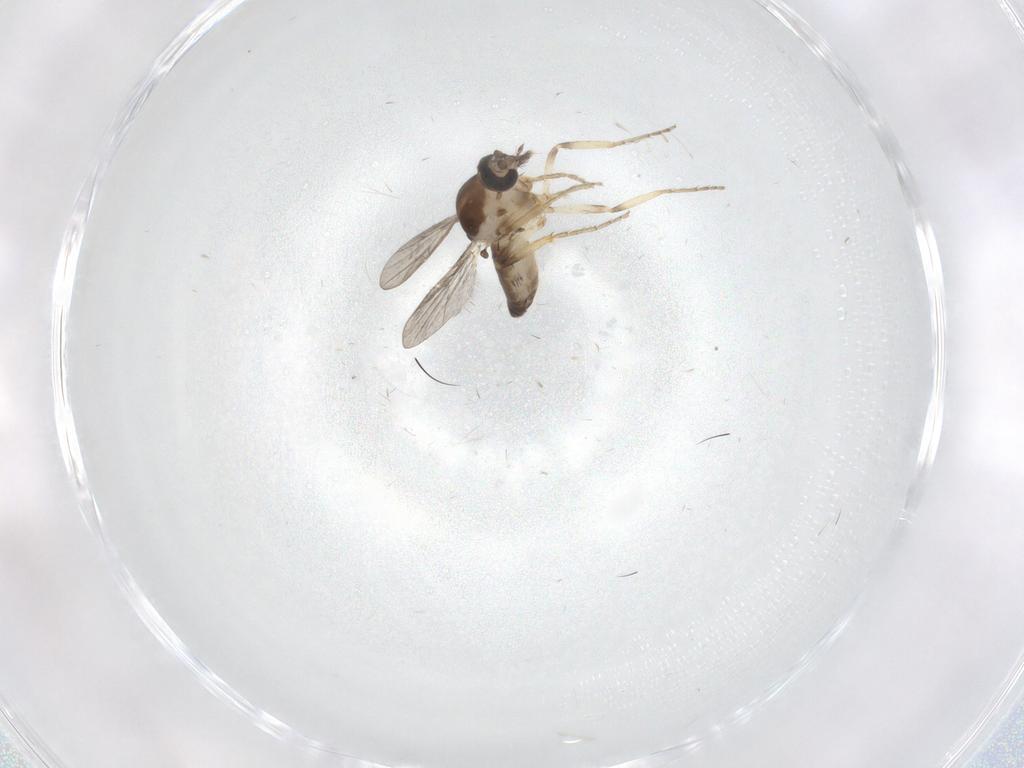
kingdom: Animalia
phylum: Arthropoda
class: Insecta
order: Diptera
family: Ceratopogonidae
